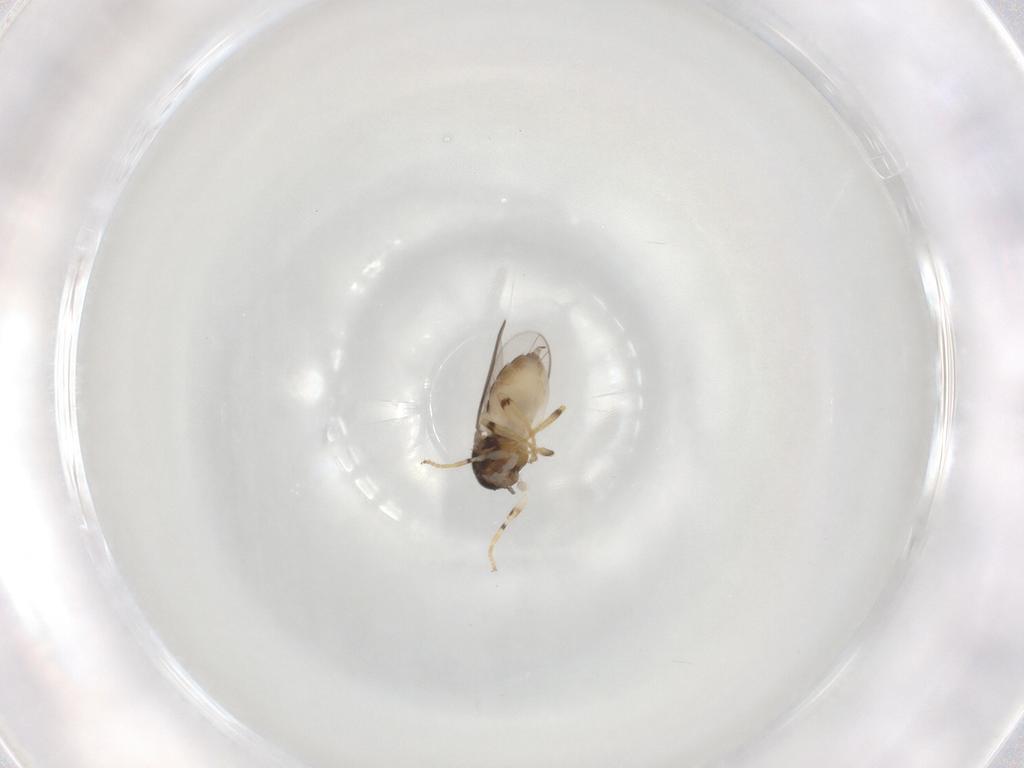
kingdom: Animalia
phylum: Arthropoda
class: Insecta
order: Diptera
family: Chloropidae
